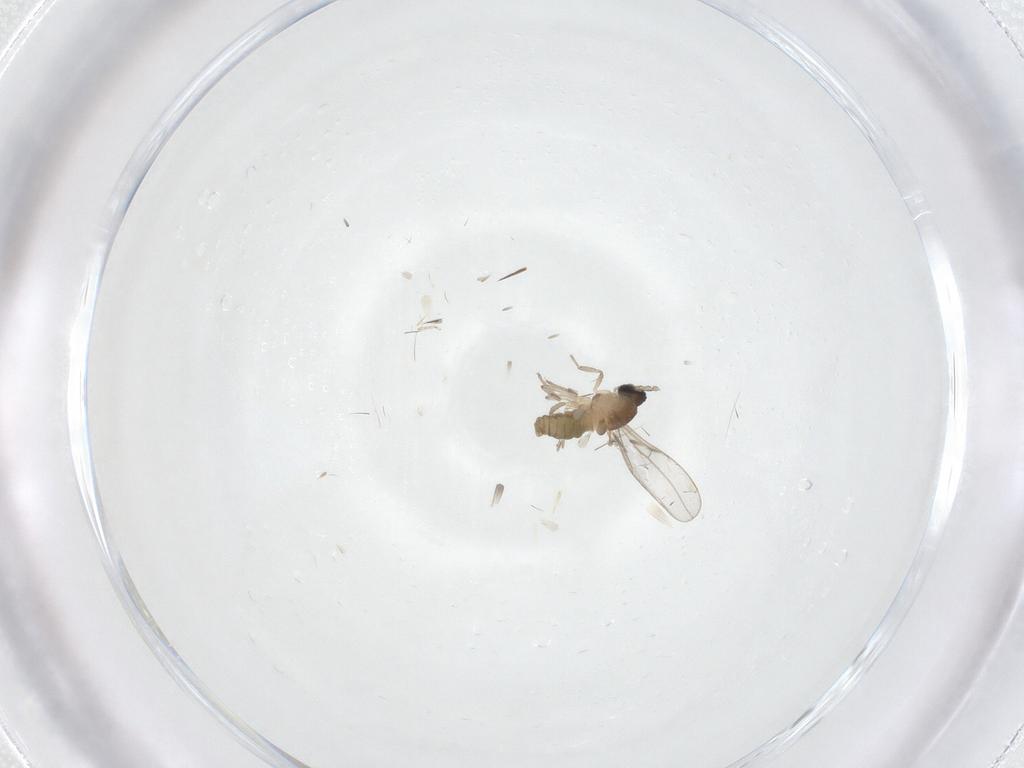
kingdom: Animalia
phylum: Arthropoda
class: Insecta
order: Diptera
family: Cecidomyiidae
